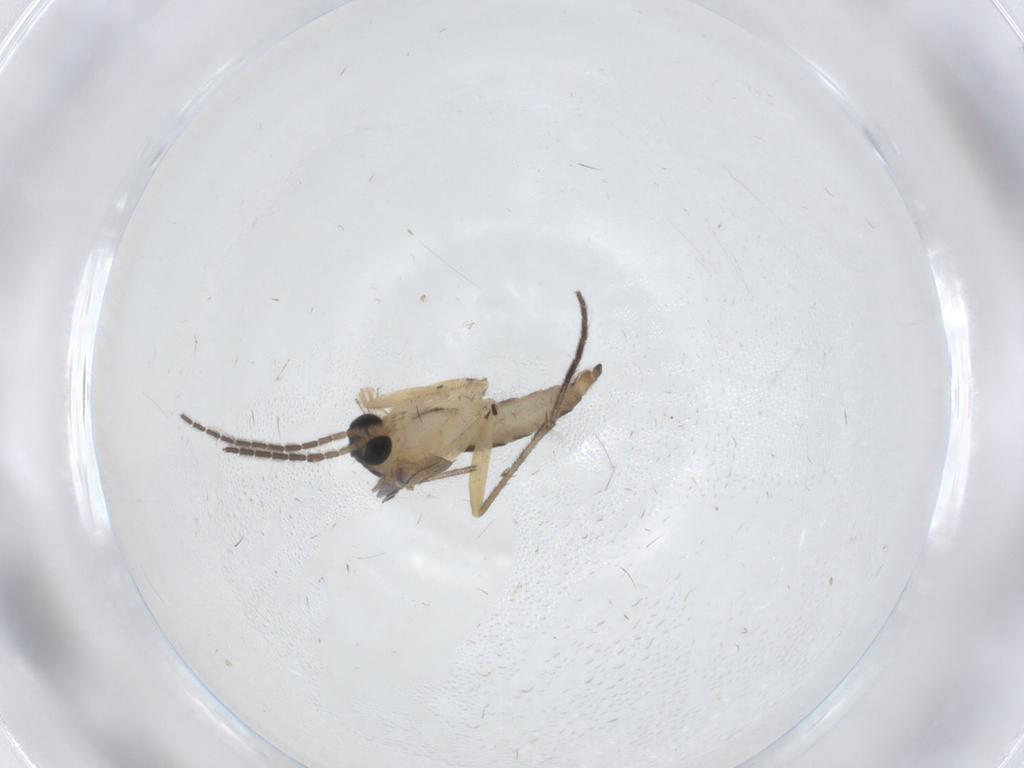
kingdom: Animalia
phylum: Arthropoda
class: Insecta
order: Diptera
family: Sciaridae
